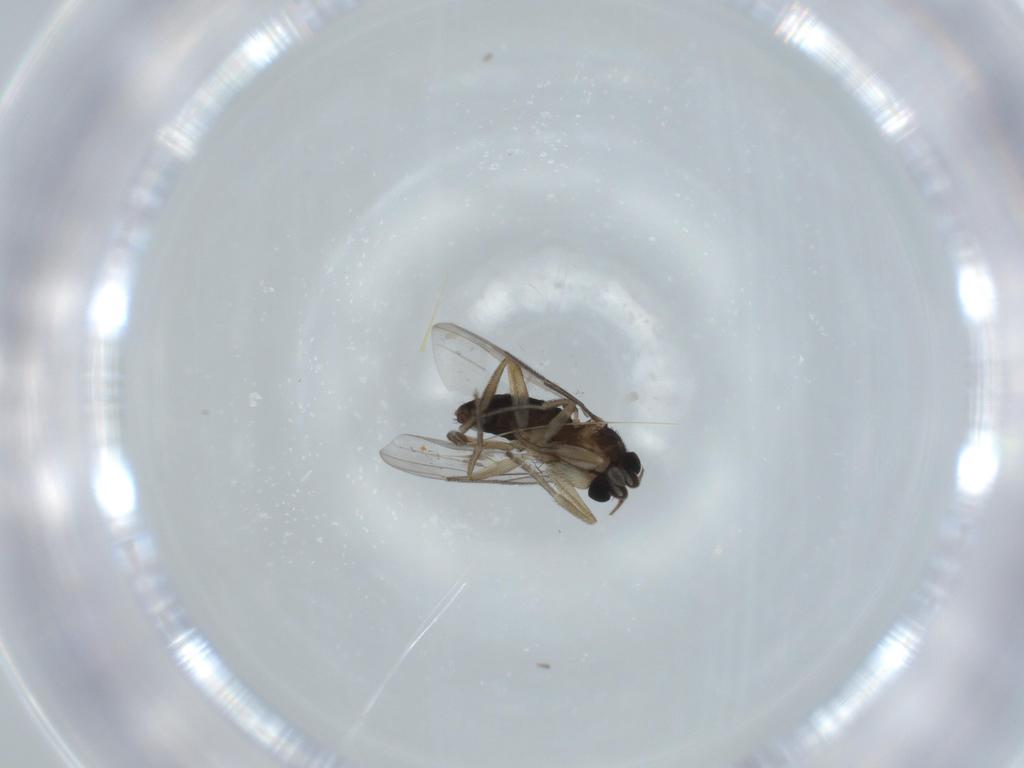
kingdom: Animalia
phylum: Arthropoda
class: Insecta
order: Diptera
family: Phoridae
